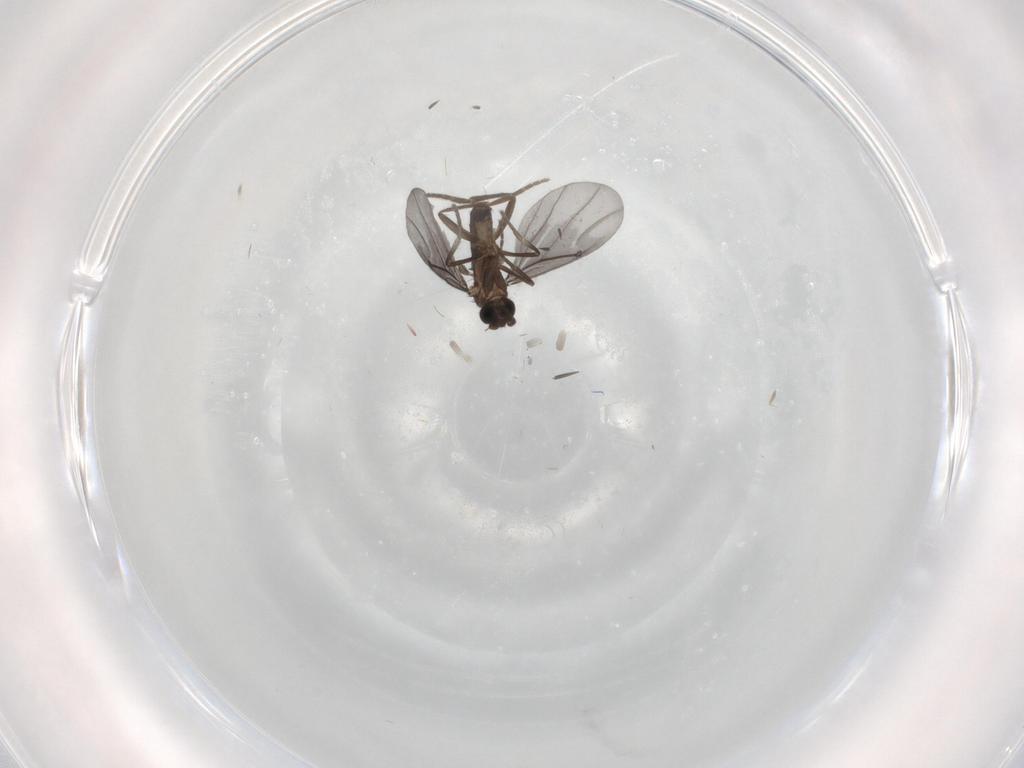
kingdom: Animalia
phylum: Arthropoda
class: Insecta
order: Diptera
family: Phoridae
